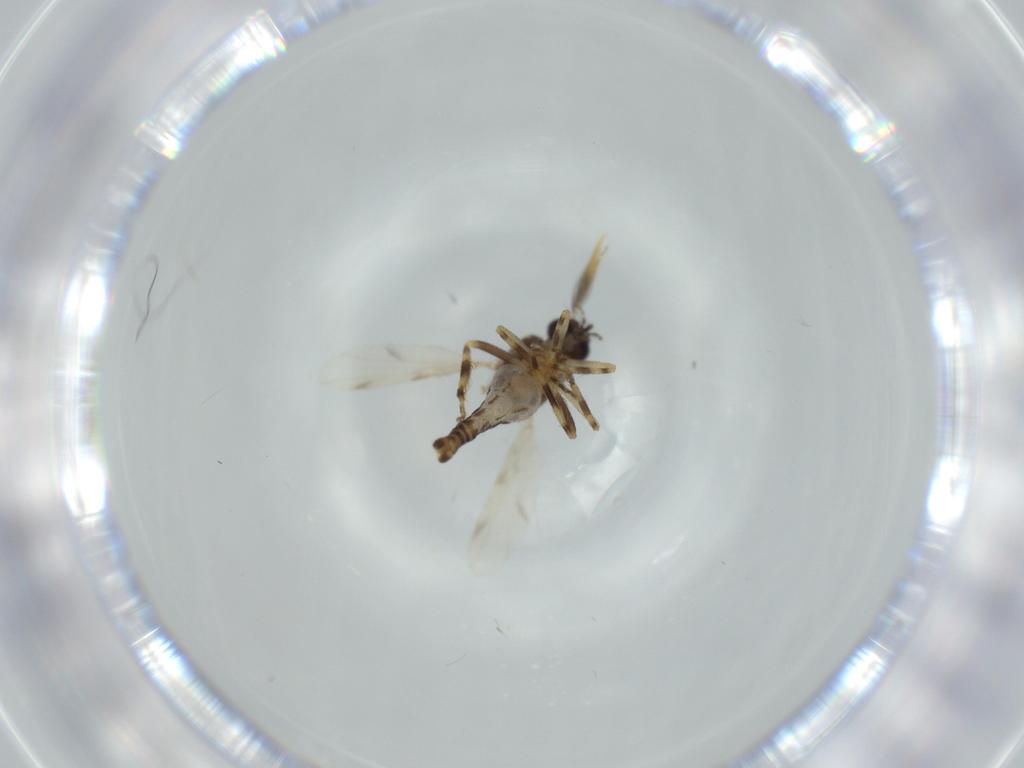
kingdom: Animalia
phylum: Arthropoda
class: Insecta
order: Diptera
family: Ceratopogonidae
